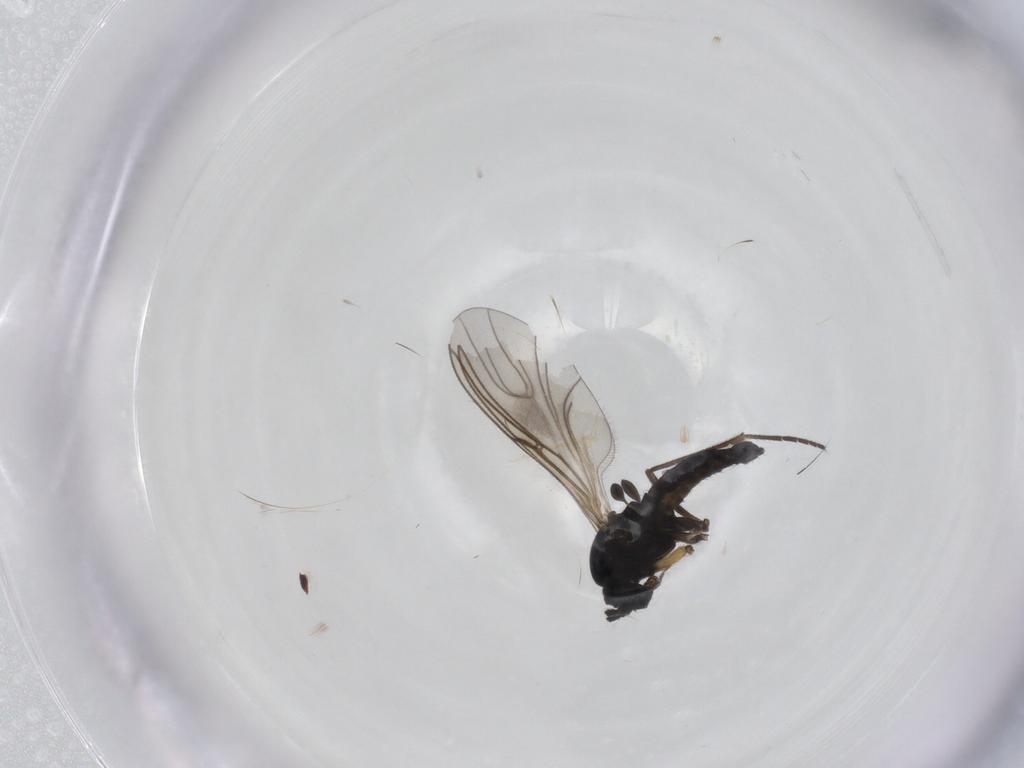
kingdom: Animalia
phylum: Arthropoda
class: Insecta
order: Diptera
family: Sciaridae
